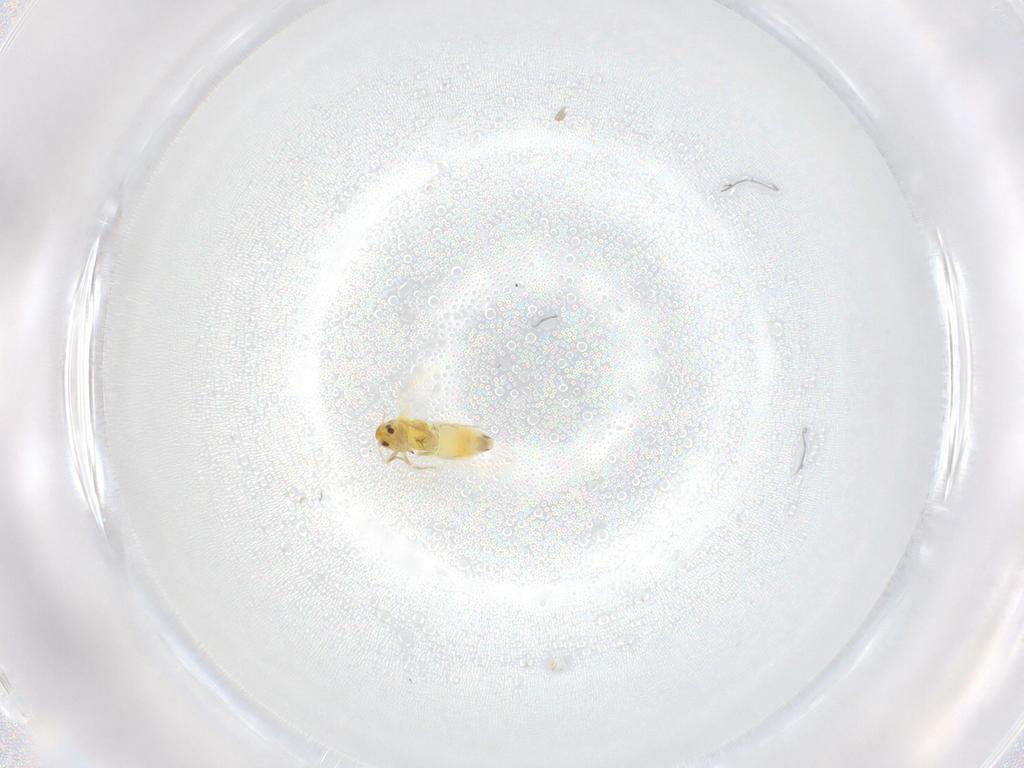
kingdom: Animalia
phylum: Arthropoda
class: Insecta
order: Hemiptera
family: Aleyrodidae
